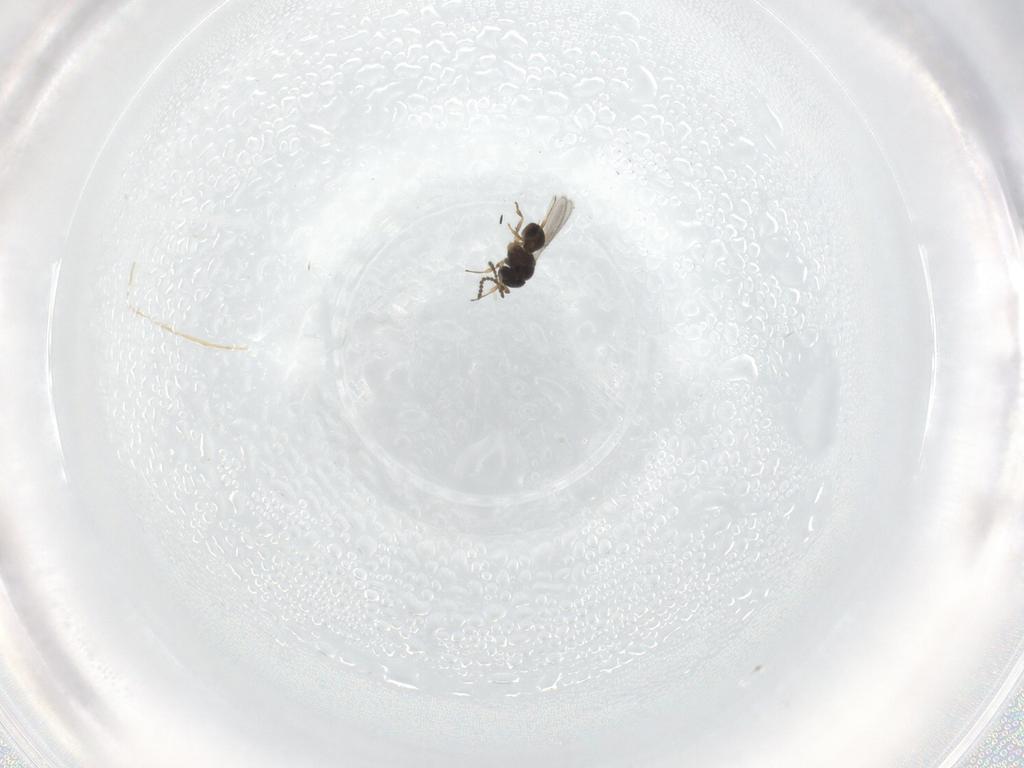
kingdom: Animalia
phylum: Arthropoda
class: Insecta
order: Hymenoptera
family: Scelionidae
